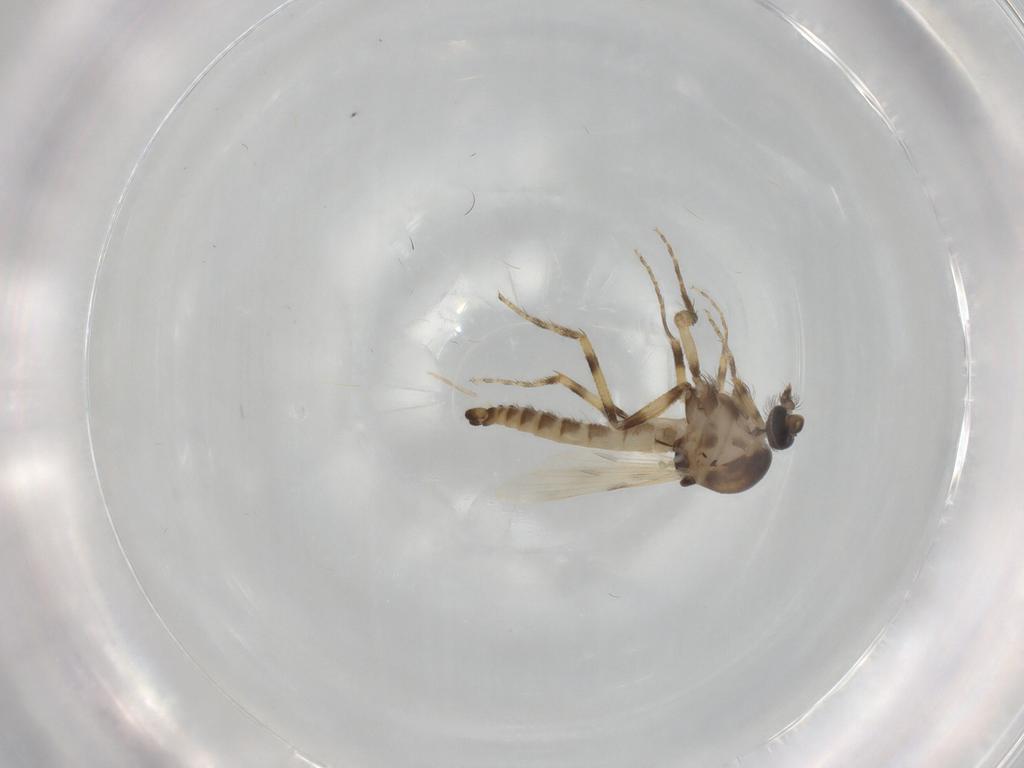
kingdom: Animalia
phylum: Arthropoda
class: Insecta
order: Diptera
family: Ceratopogonidae
